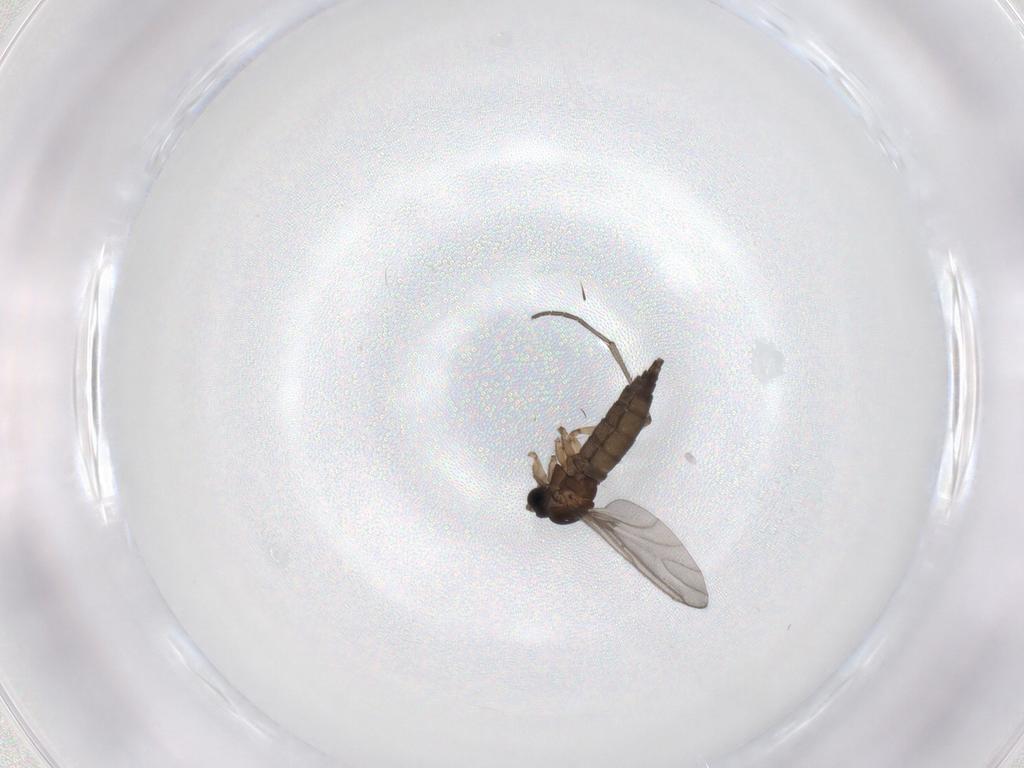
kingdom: Animalia
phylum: Arthropoda
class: Insecta
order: Diptera
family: Sciaridae
